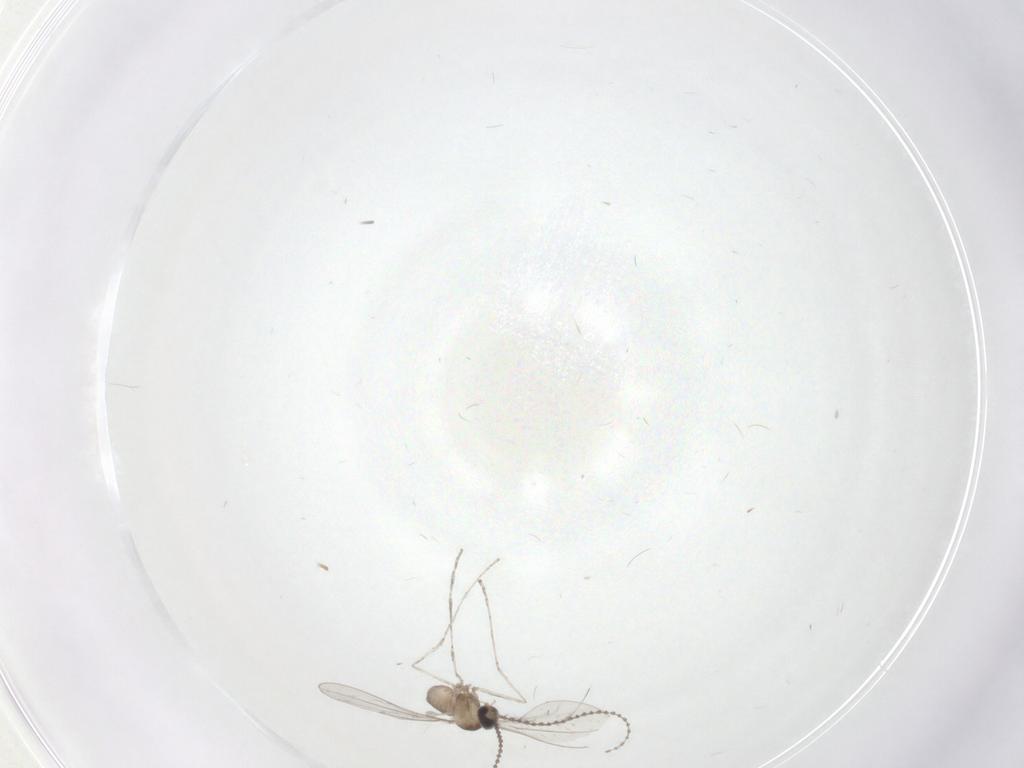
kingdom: Animalia
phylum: Arthropoda
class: Insecta
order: Diptera
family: Cecidomyiidae
